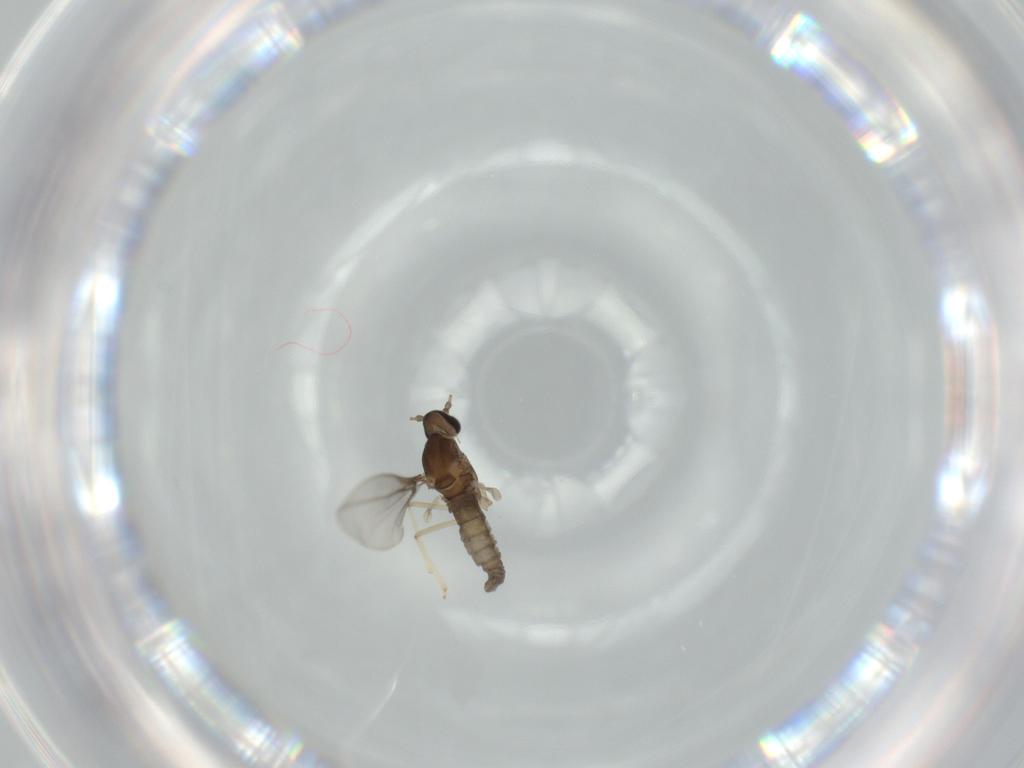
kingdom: Animalia
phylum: Arthropoda
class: Insecta
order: Diptera
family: Cecidomyiidae
